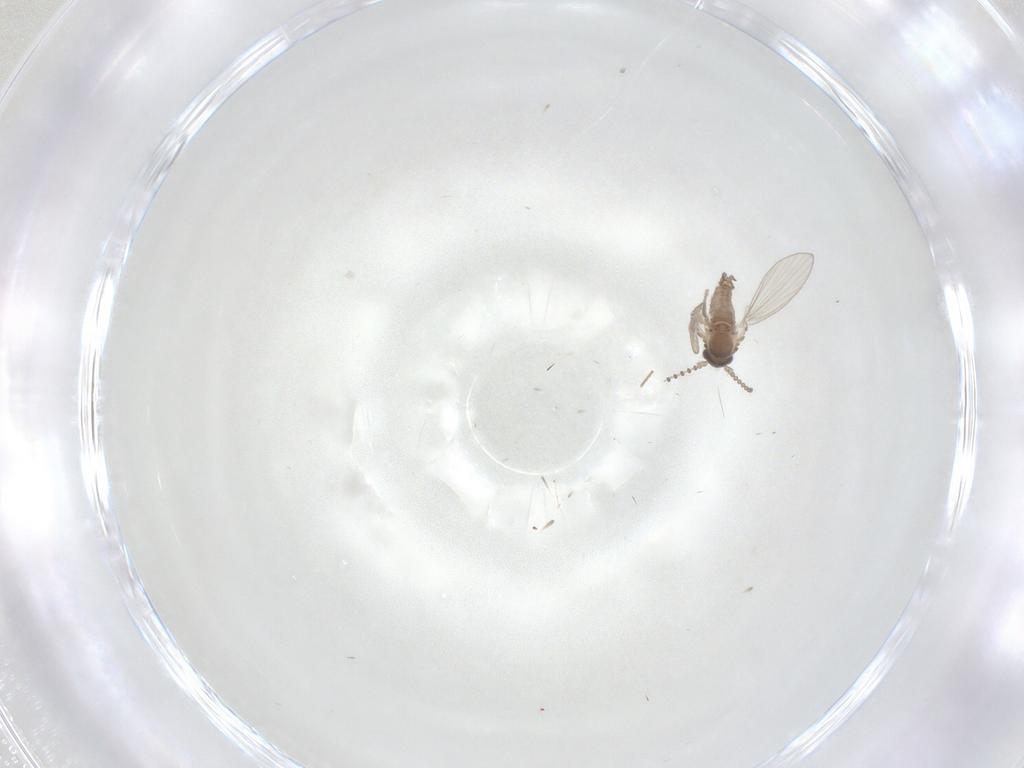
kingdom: Animalia
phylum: Arthropoda
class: Insecta
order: Diptera
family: Psychodidae
